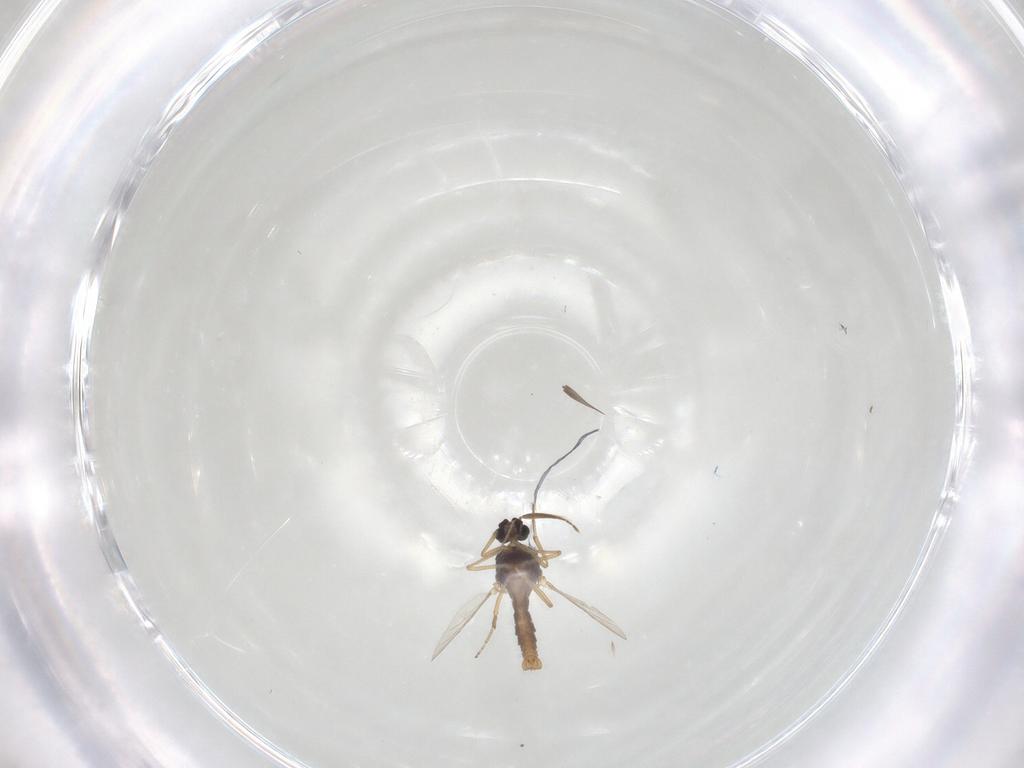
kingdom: Animalia
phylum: Arthropoda
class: Insecta
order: Diptera
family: Ceratopogonidae
